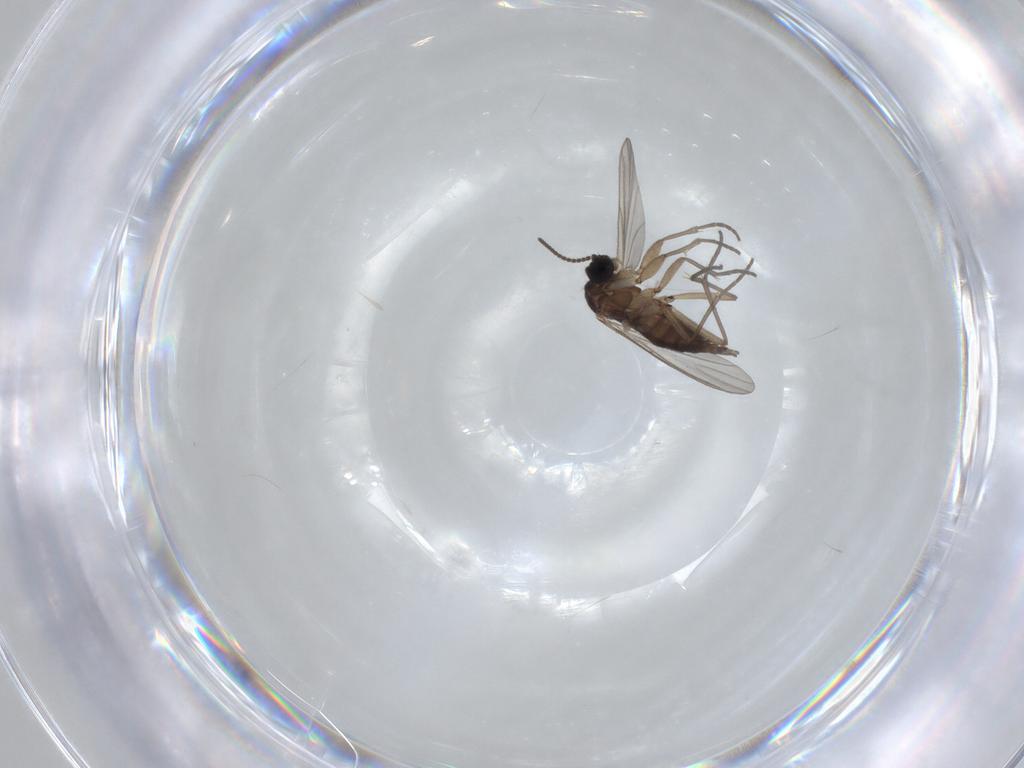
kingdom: Animalia
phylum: Arthropoda
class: Insecta
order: Diptera
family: Sciaridae
